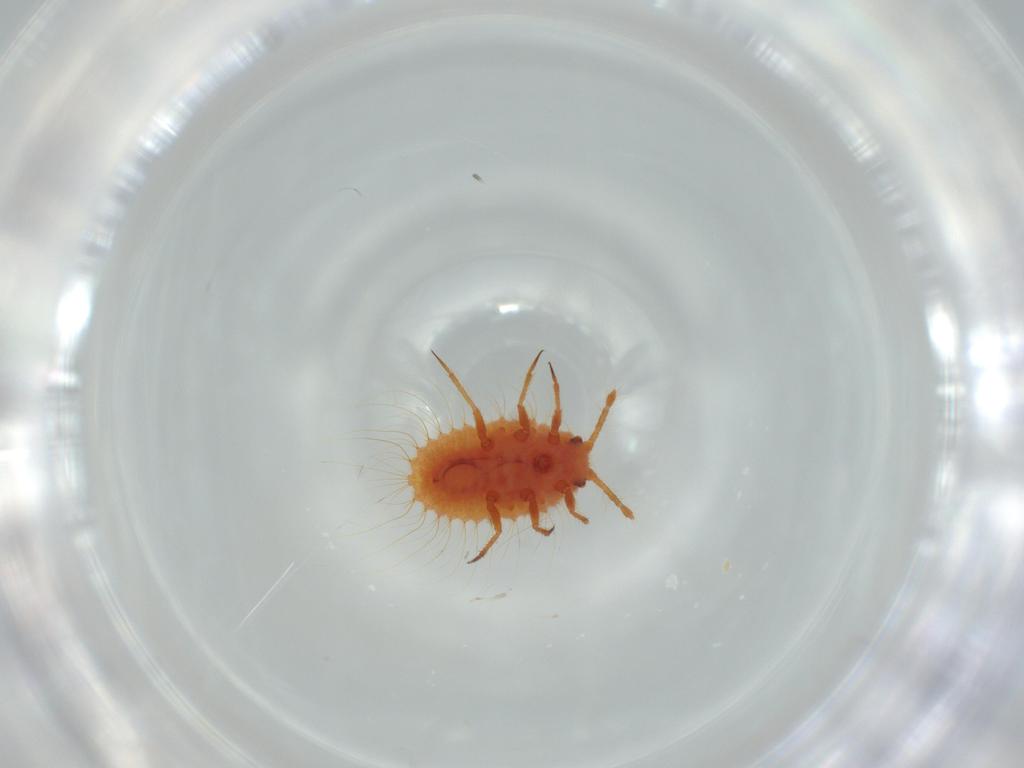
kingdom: Animalia
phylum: Arthropoda
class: Insecta
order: Hemiptera
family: Coccoidea_incertae_sedis
